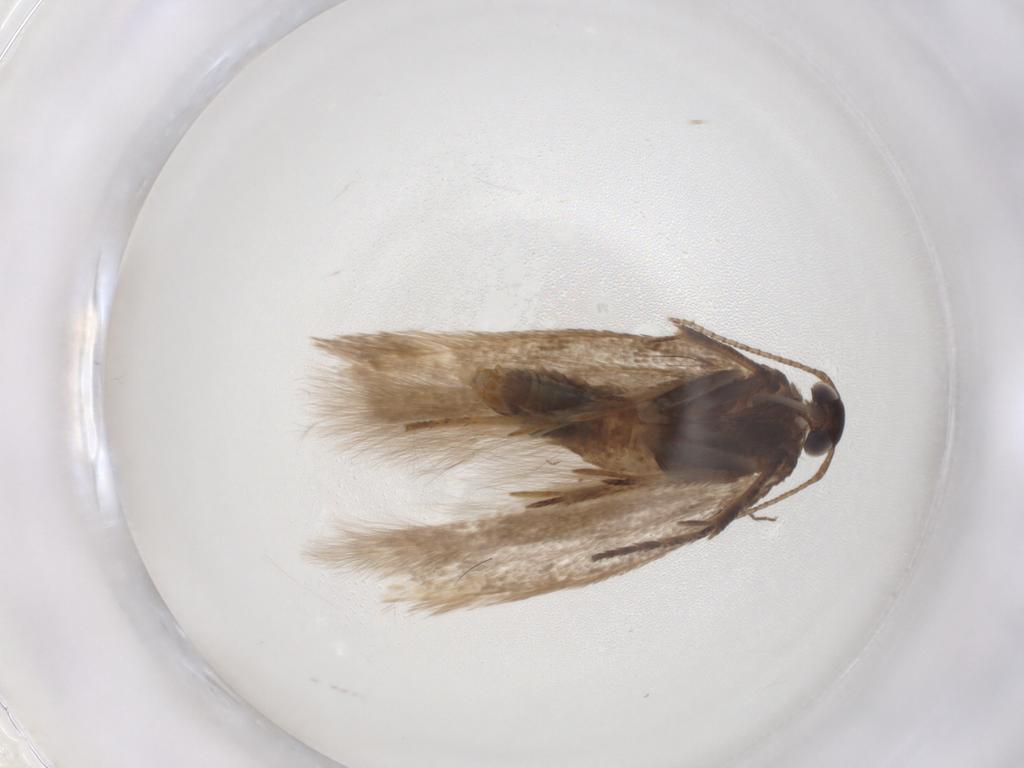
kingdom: Animalia
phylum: Arthropoda
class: Insecta
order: Lepidoptera
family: Gelechiidae
